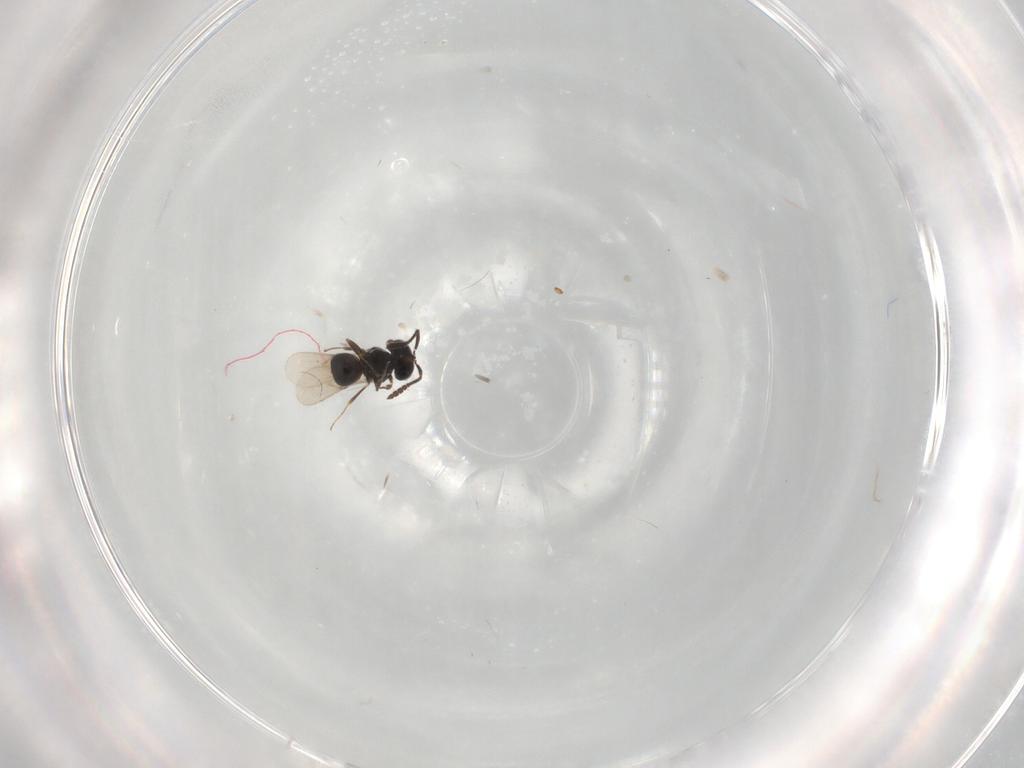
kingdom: Animalia
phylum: Arthropoda
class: Insecta
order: Hymenoptera
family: Scelionidae
